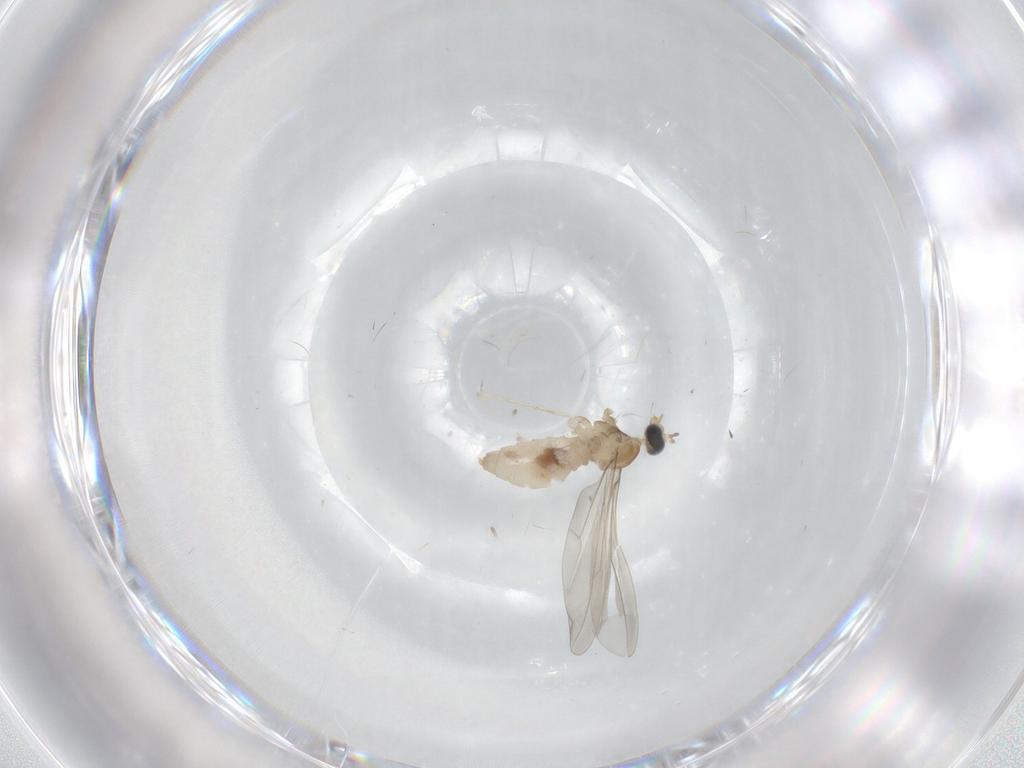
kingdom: Animalia
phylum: Arthropoda
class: Insecta
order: Diptera
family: Cecidomyiidae
